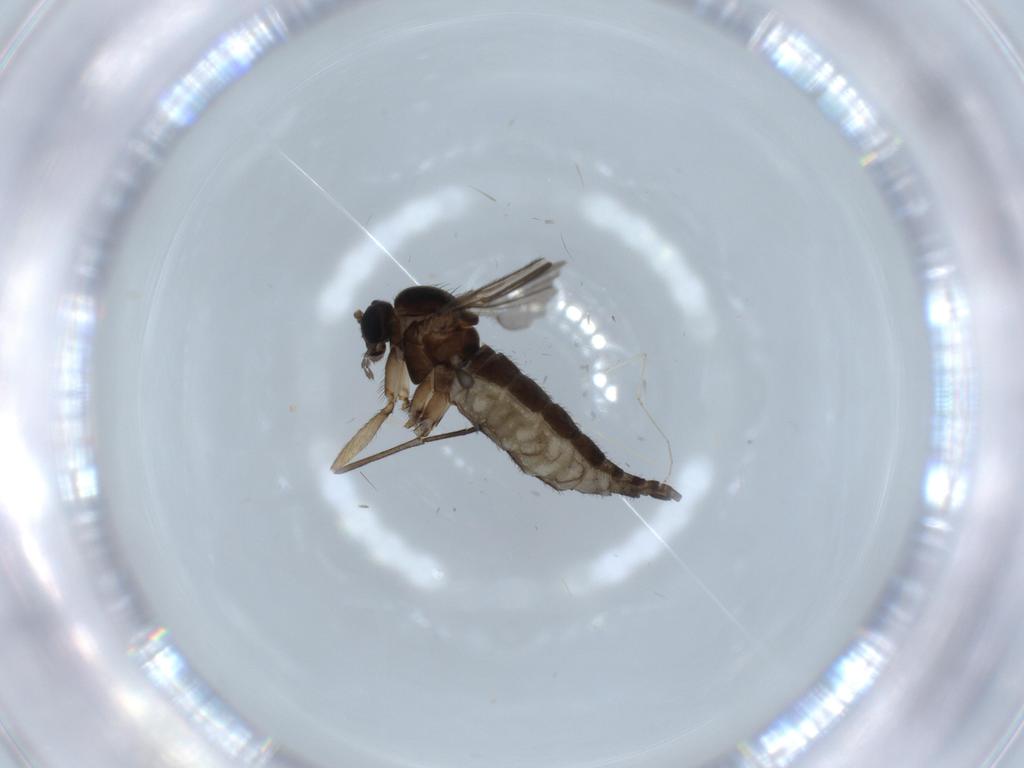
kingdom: Animalia
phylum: Arthropoda
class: Insecta
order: Diptera
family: Sciaridae
